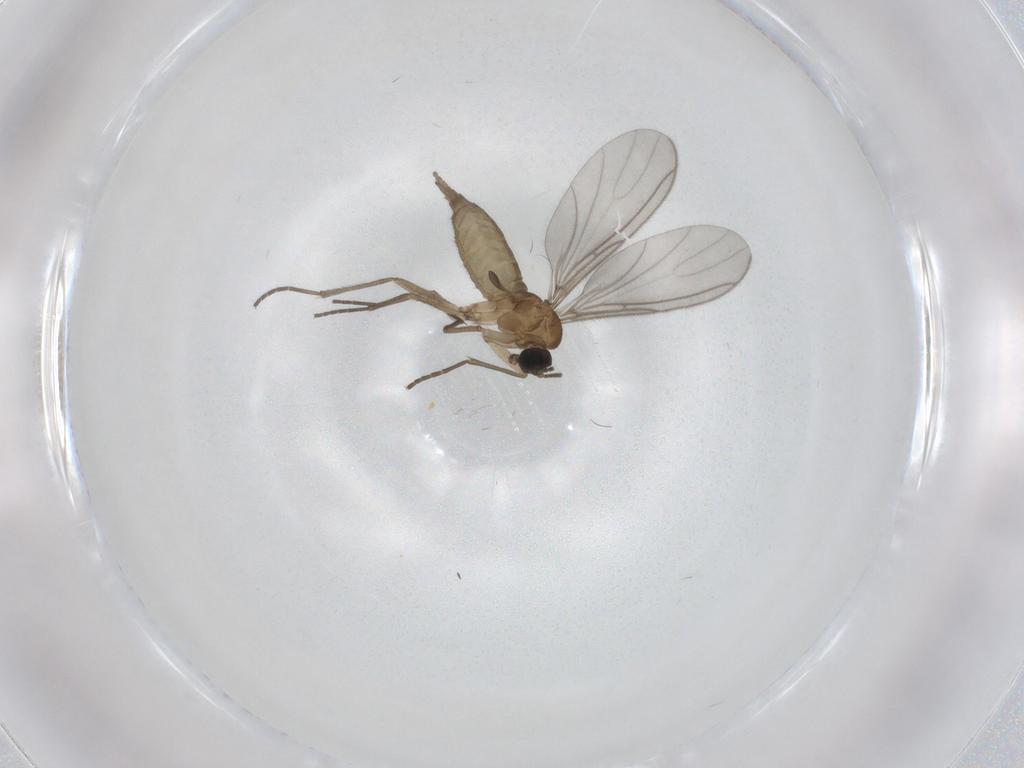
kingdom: Animalia
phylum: Arthropoda
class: Insecta
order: Diptera
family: Sciaridae
